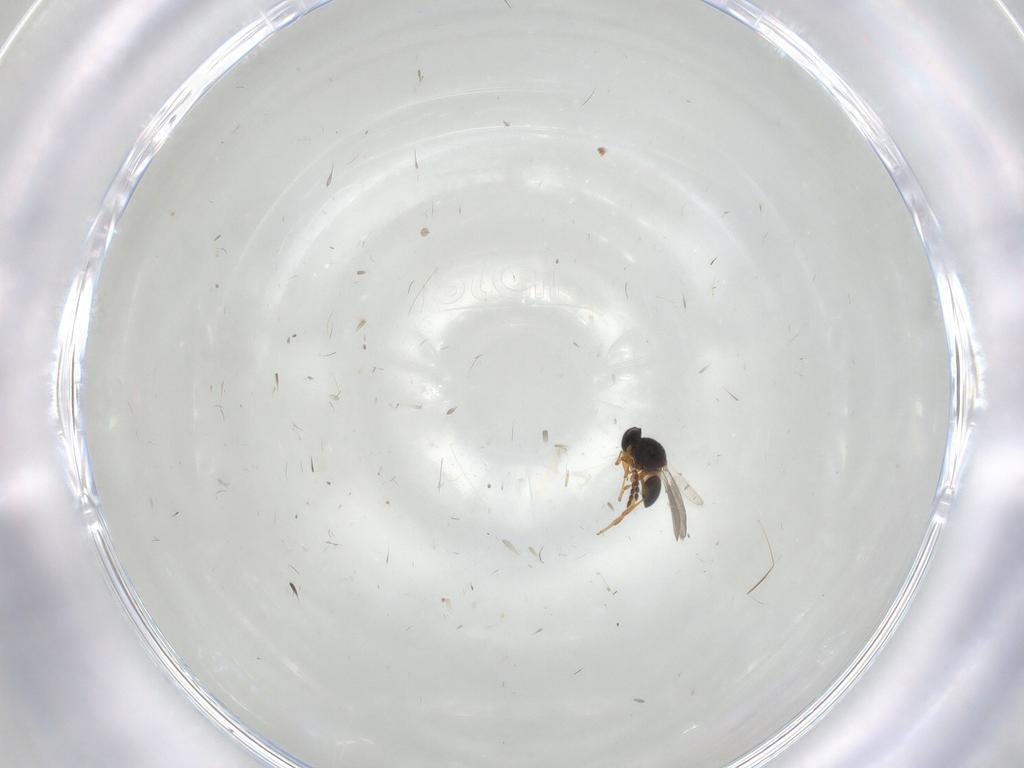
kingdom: Animalia
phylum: Arthropoda
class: Insecta
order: Hymenoptera
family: Platygastridae
